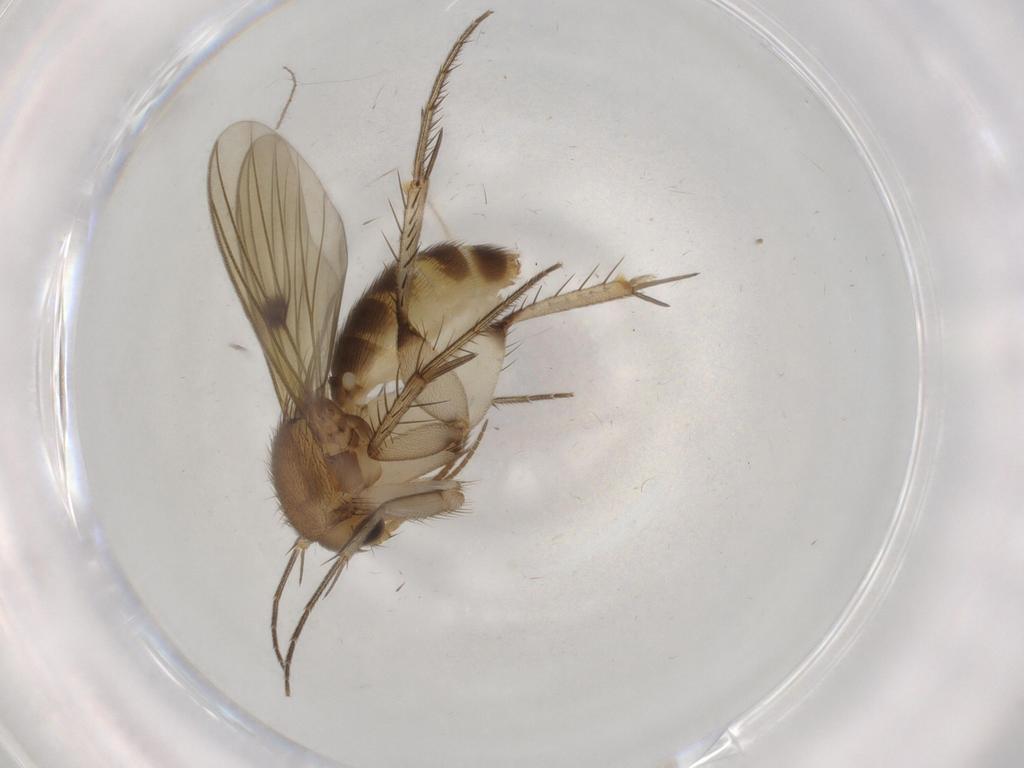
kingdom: Animalia
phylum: Arthropoda
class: Insecta
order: Diptera
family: Mycetophilidae
